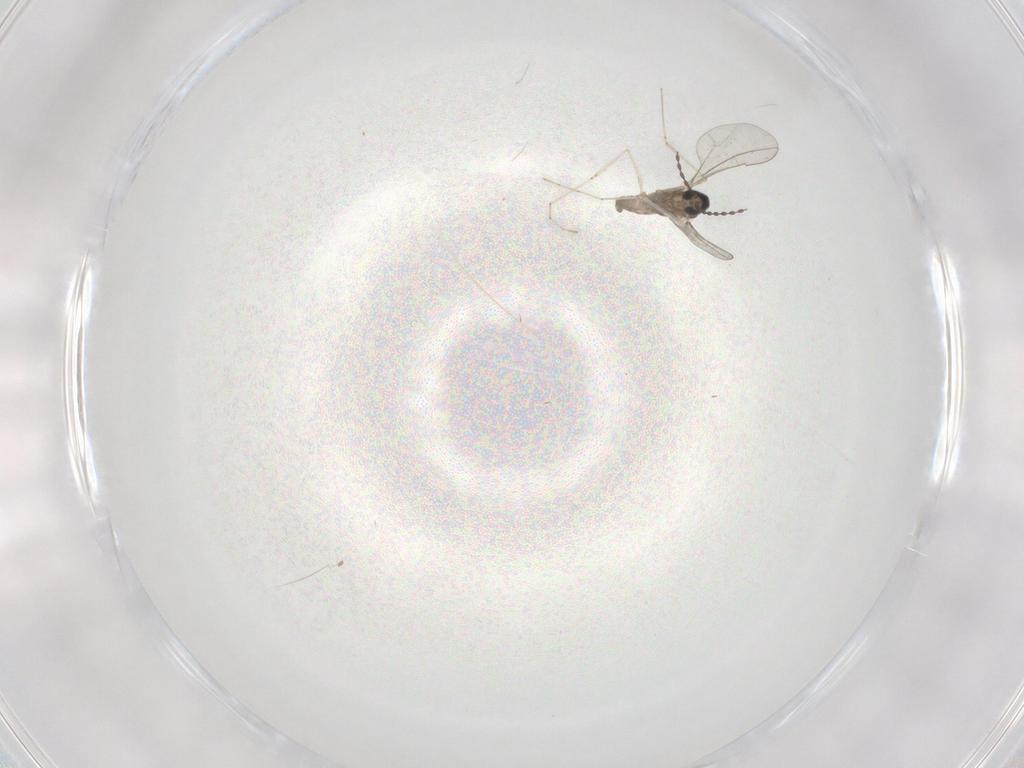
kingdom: Animalia
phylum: Arthropoda
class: Insecta
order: Diptera
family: Cecidomyiidae
